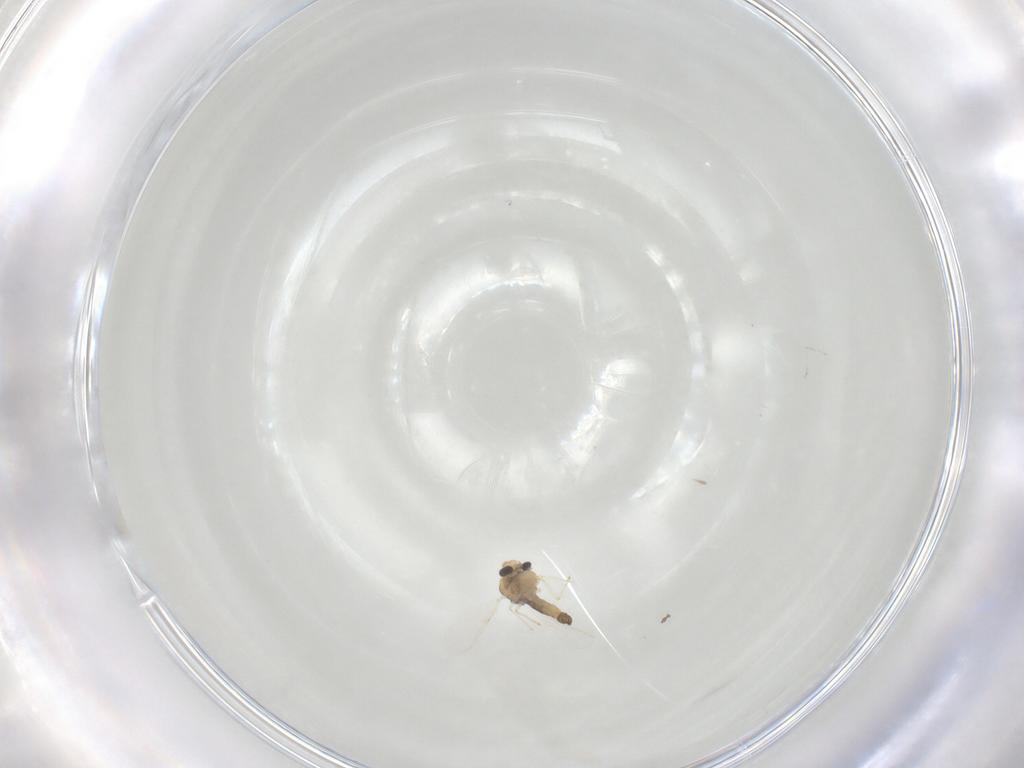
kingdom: Animalia
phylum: Arthropoda
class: Insecta
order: Diptera
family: Chironomidae
